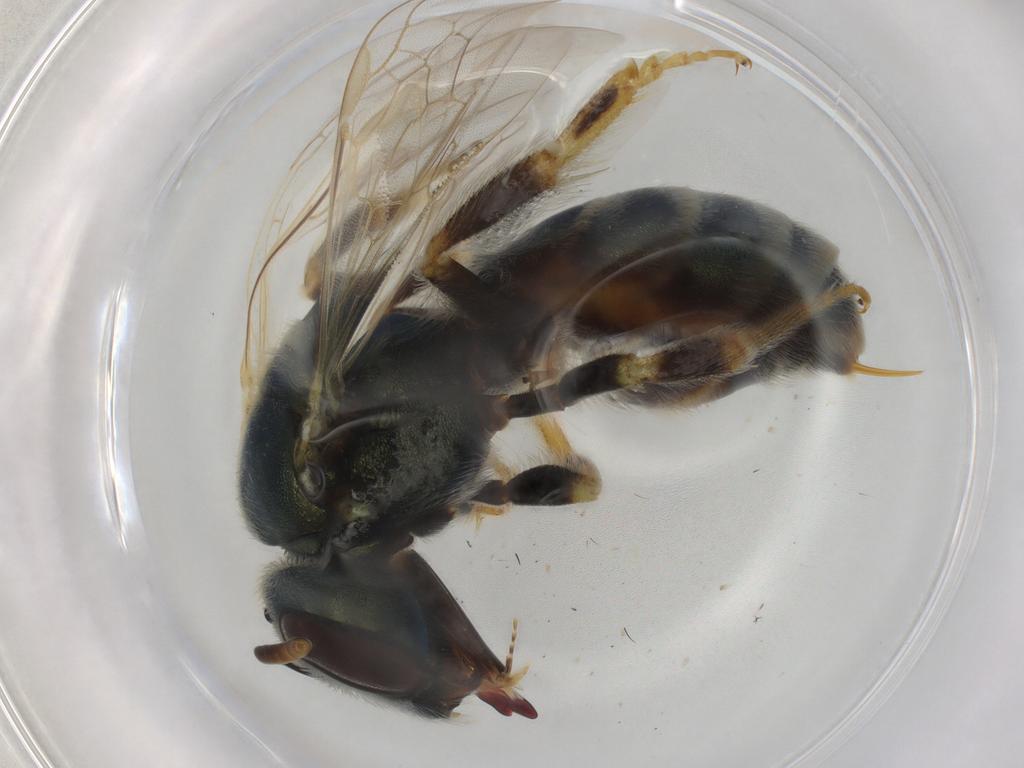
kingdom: Animalia
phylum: Arthropoda
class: Insecta
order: Hymenoptera
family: Halictidae
